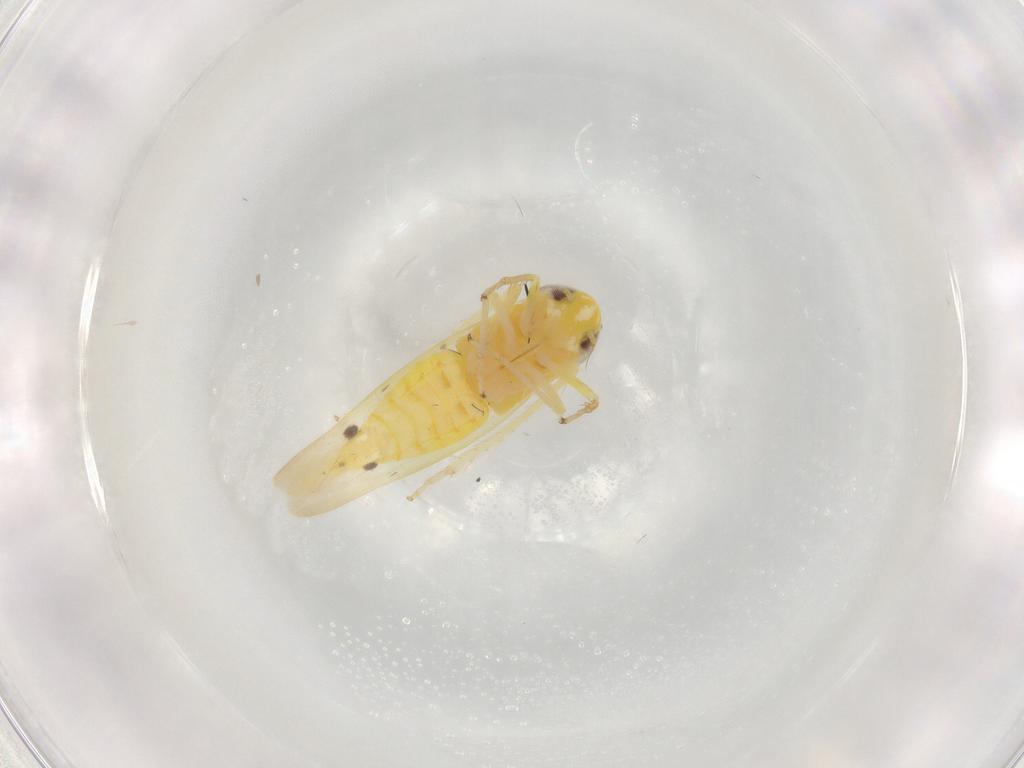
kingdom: Animalia
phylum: Arthropoda
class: Insecta
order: Hemiptera
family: Cicadellidae
